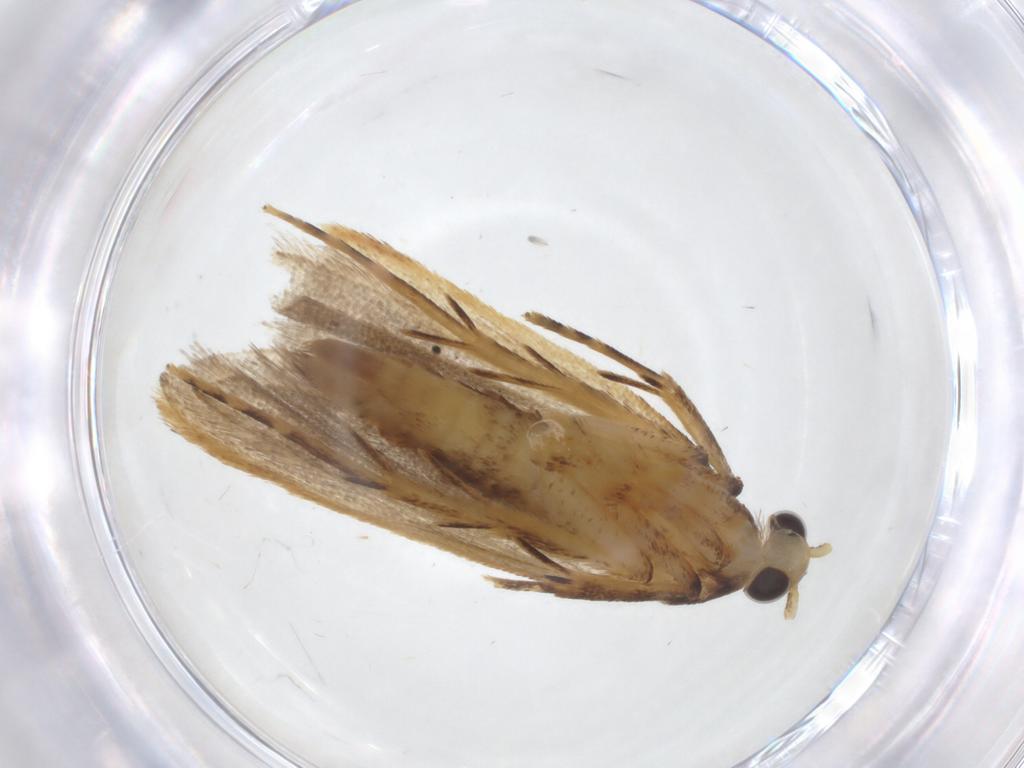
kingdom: Animalia
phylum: Arthropoda
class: Insecta
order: Lepidoptera
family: Lecithoceridae
